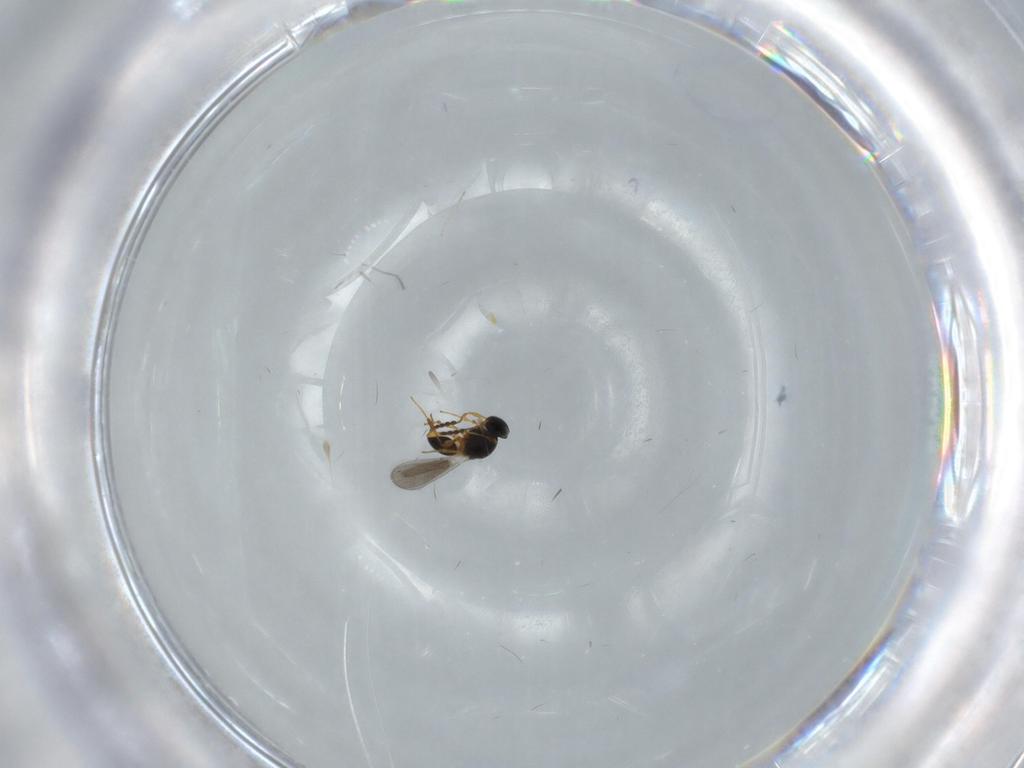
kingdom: Animalia
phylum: Arthropoda
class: Insecta
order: Hymenoptera
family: Platygastridae
